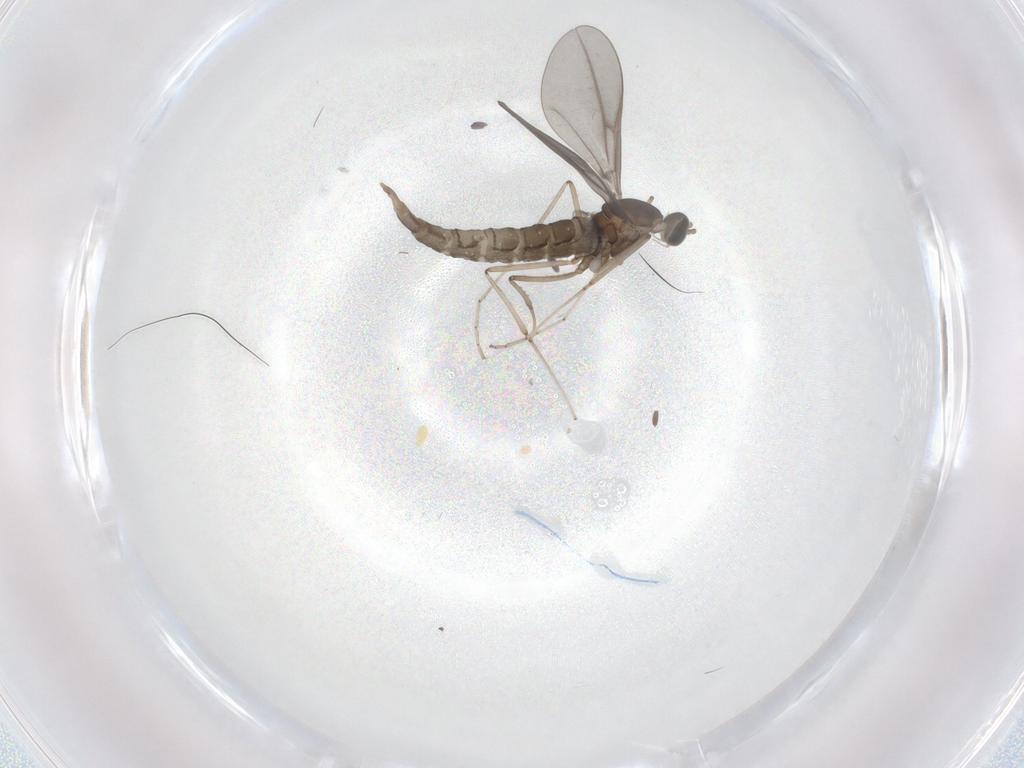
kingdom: Animalia
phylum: Arthropoda
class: Insecta
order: Diptera
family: Cecidomyiidae
